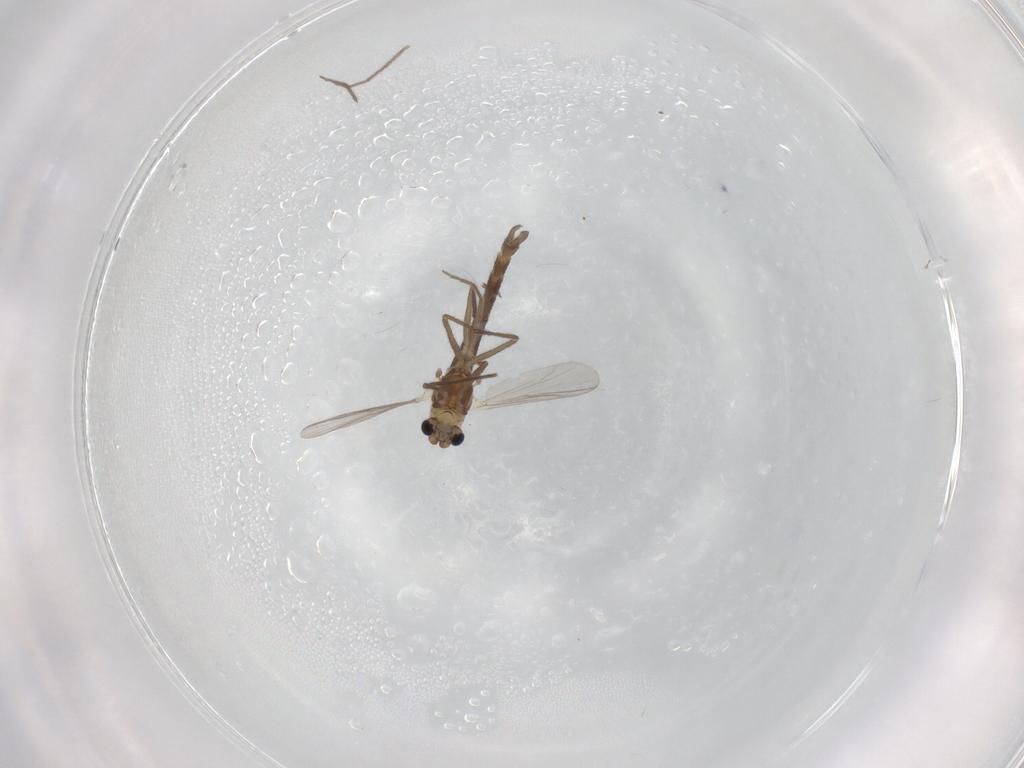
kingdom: Animalia
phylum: Arthropoda
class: Insecta
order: Diptera
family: Chironomidae
